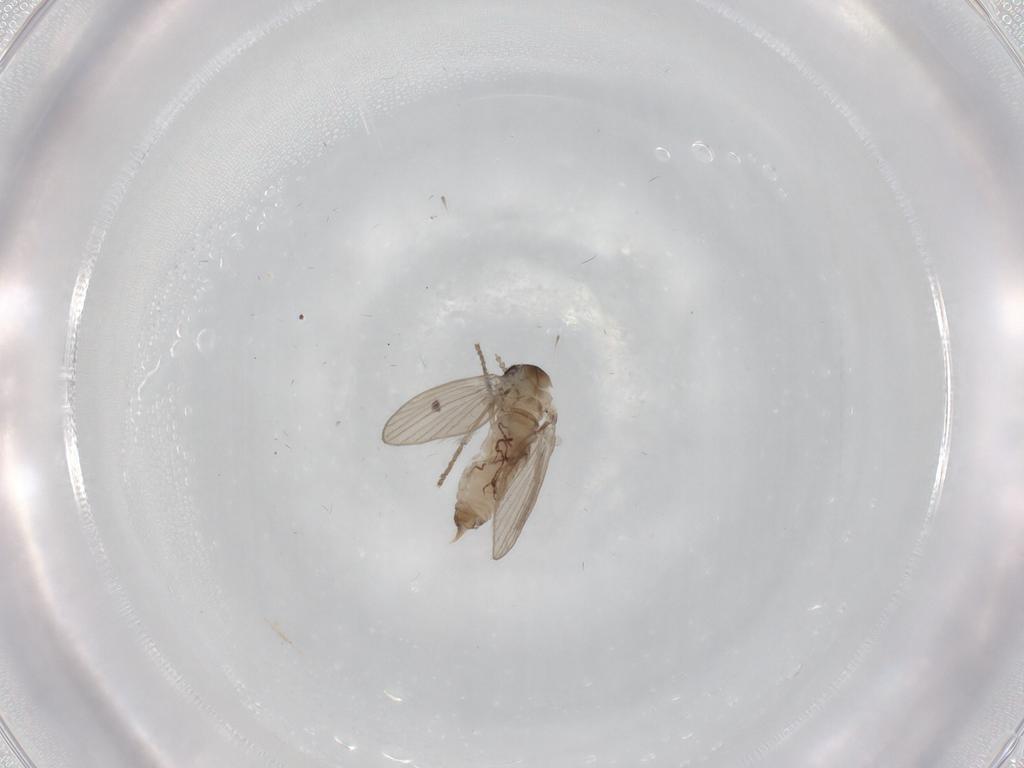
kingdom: Animalia
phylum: Arthropoda
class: Insecta
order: Diptera
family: Psychodidae
